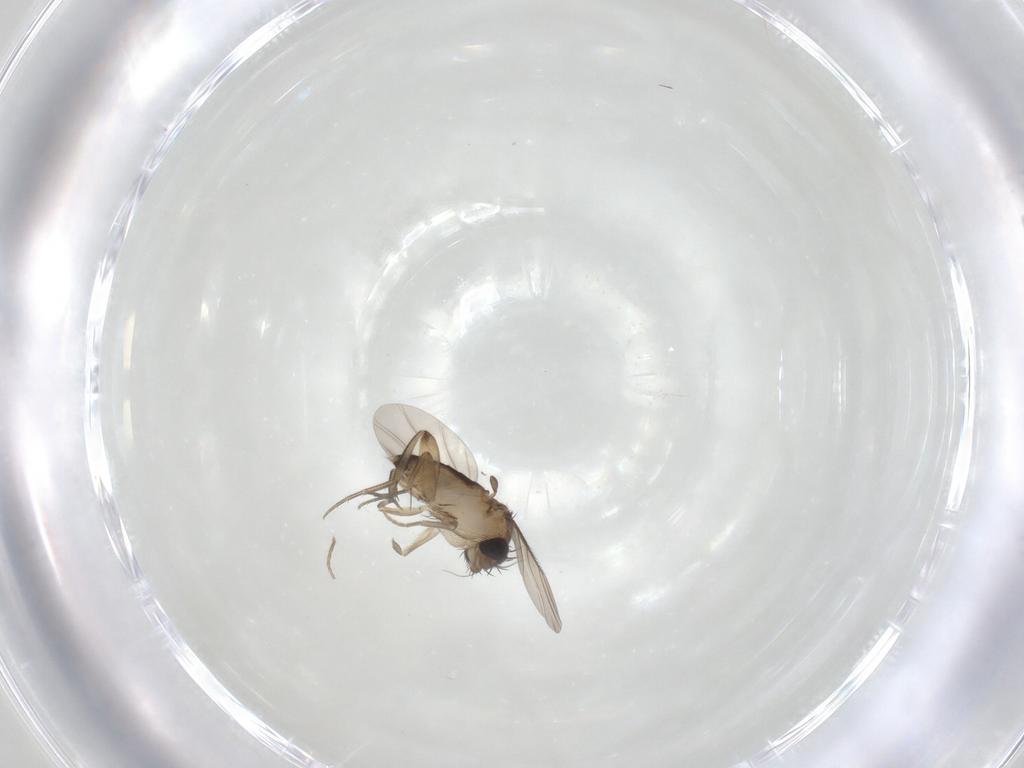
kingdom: Animalia
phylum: Arthropoda
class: Insecta
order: Diptera
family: Phoridae
